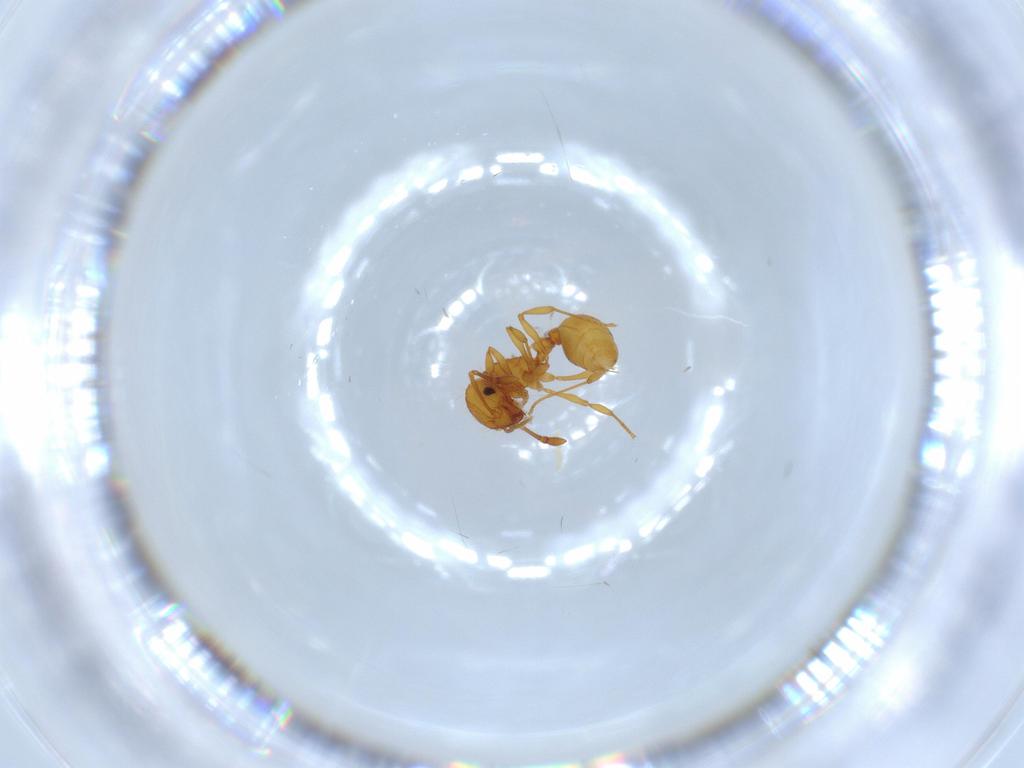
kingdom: Animalia
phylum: Arthropoda
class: Insecta
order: Hymenoptera
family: Formicidae
